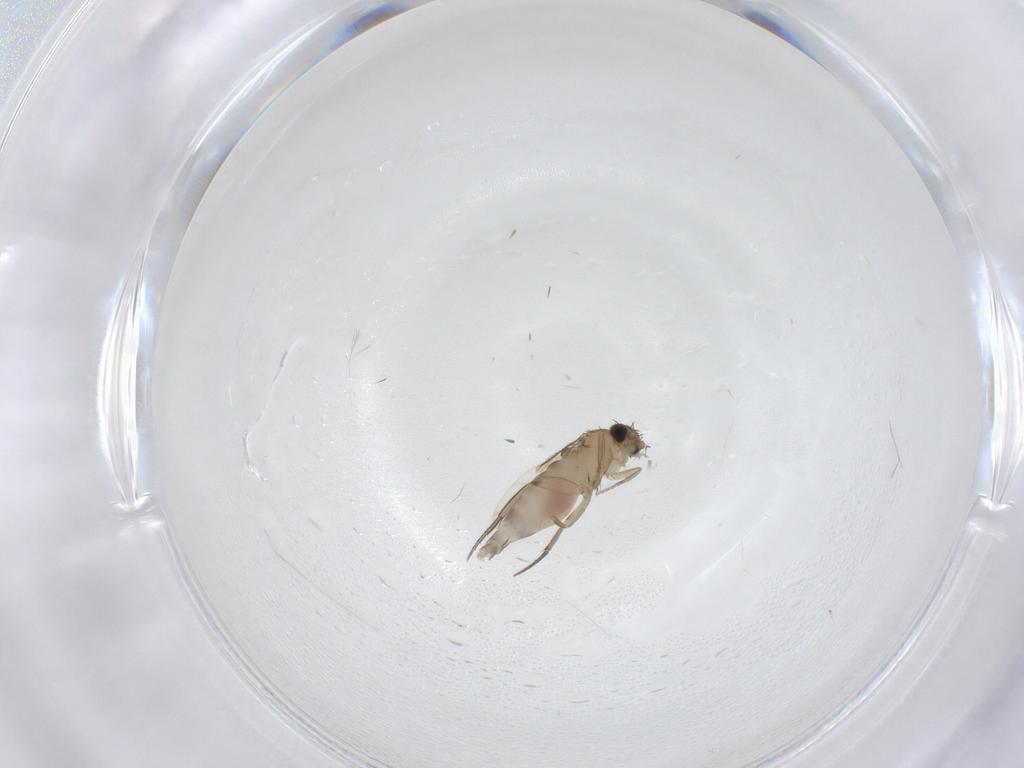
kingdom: Animalia
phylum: Arthropoda
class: Insecta
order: Diptera
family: Phoridae
